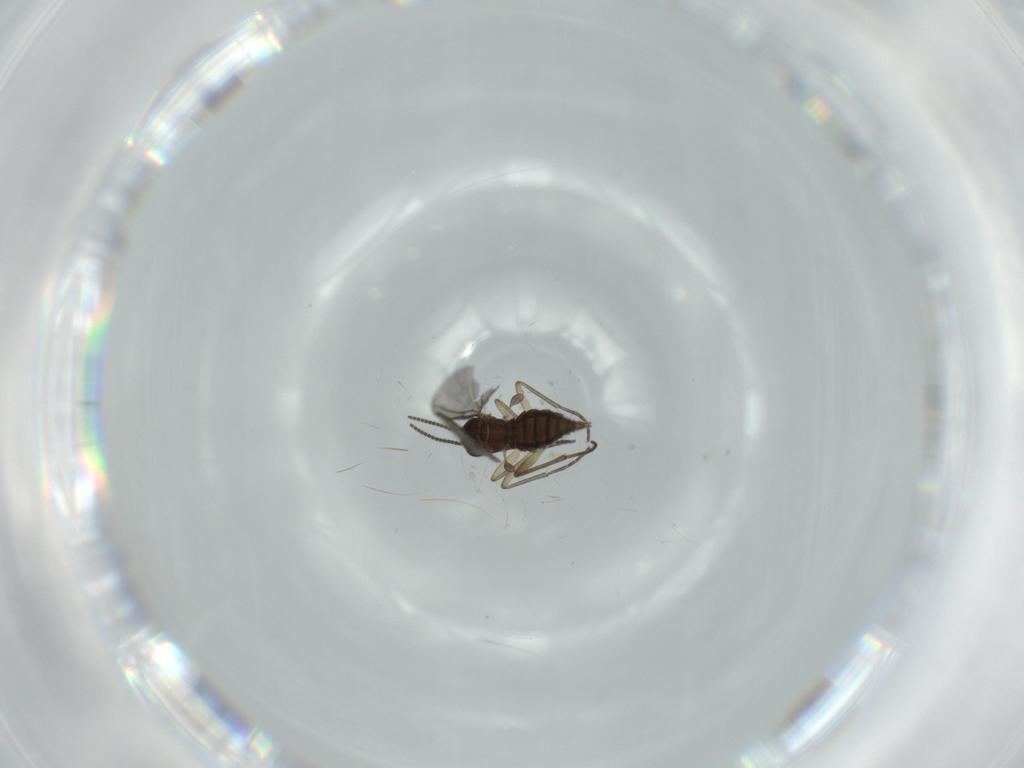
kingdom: Animalia
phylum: Arthropoda
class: Insecta
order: Diptera
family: Sciaridae
